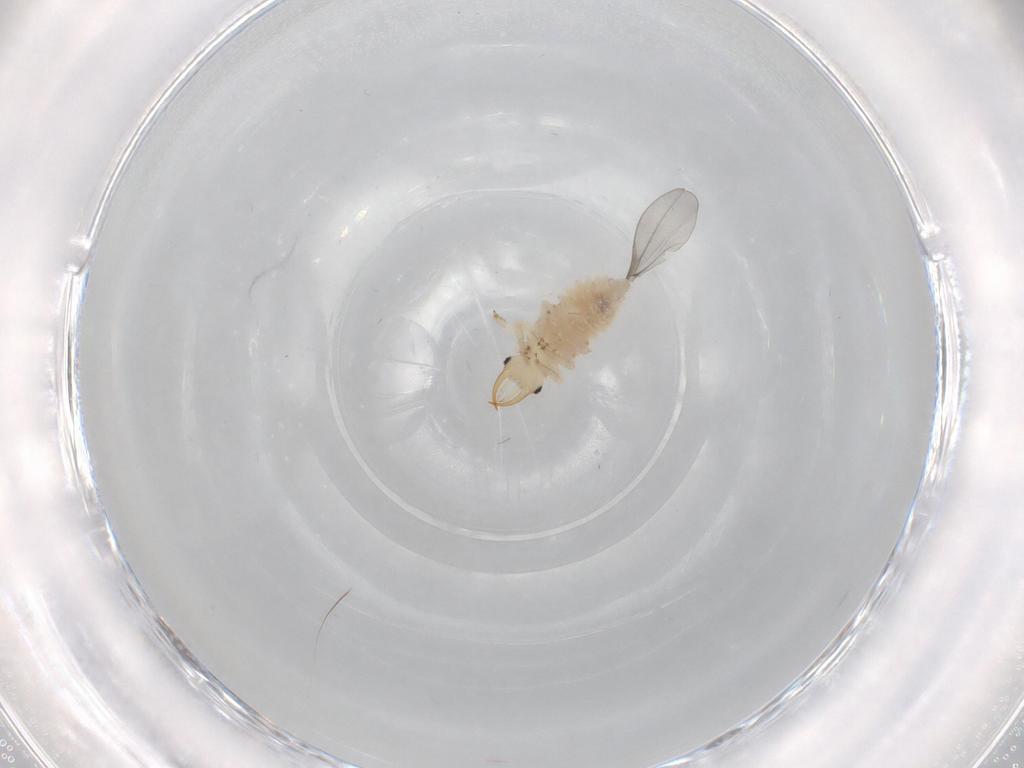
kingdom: Animalia
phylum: Arthropoda
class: Insecta
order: Neuroptera
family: Chrysopidae
